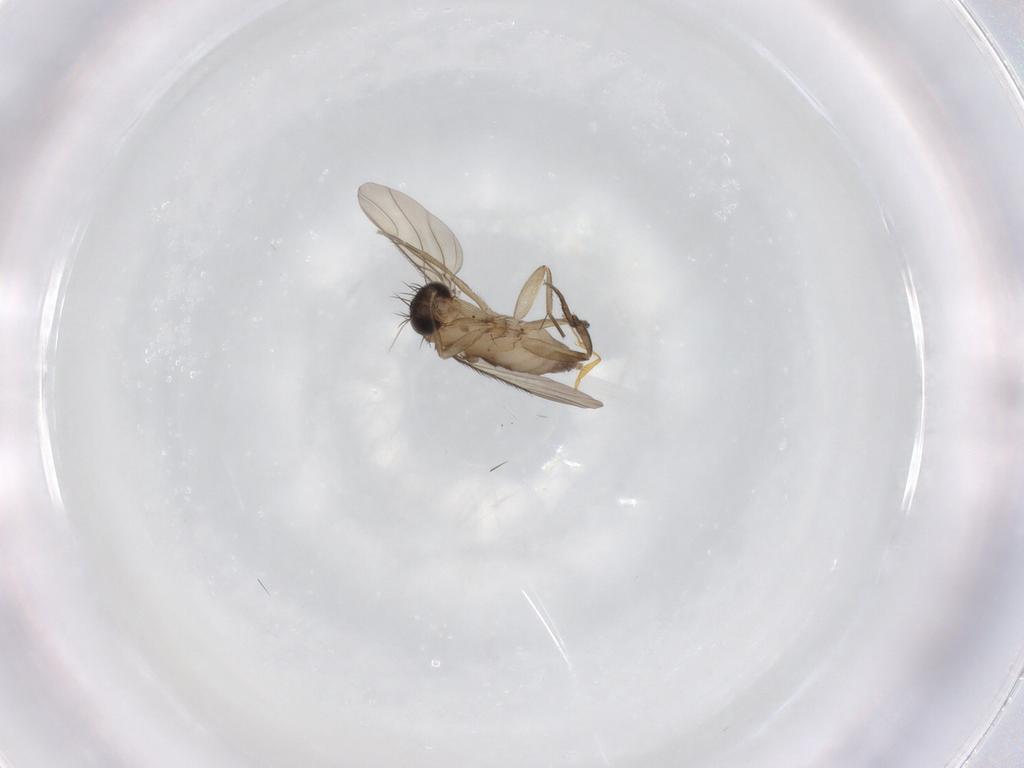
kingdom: Animalia
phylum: Arthropoda
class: Insecta
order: Diptera
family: Phoridae
